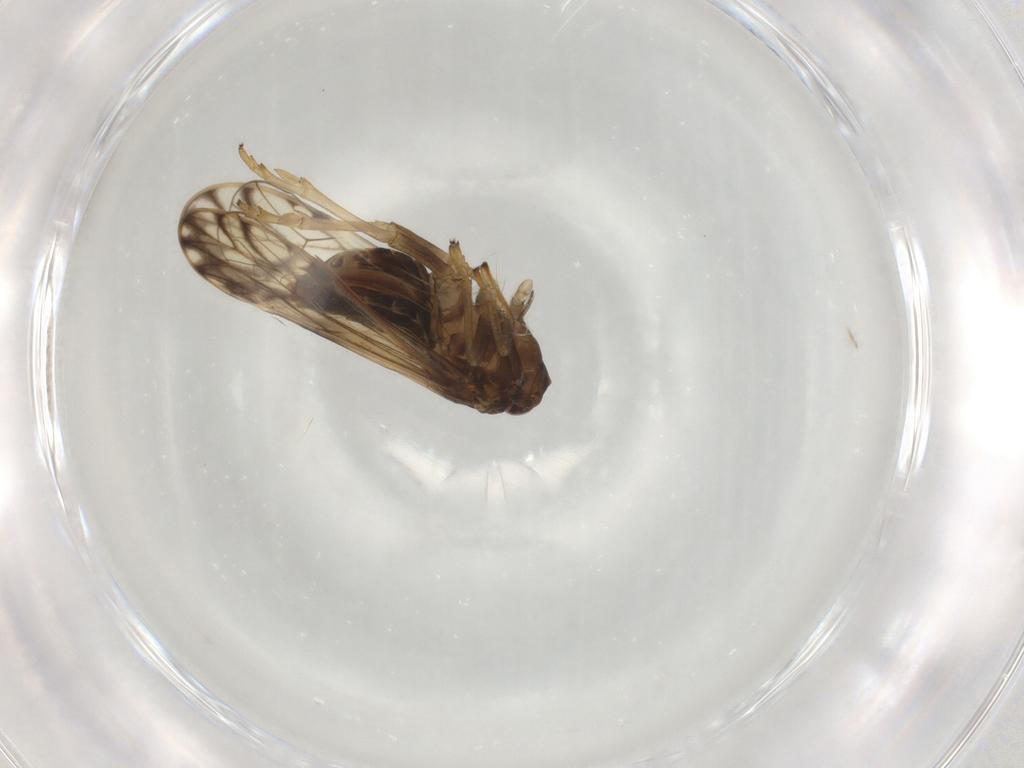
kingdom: Animalia
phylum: Arthropoda
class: Insecta
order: Hemiptera
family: Delphacidae
